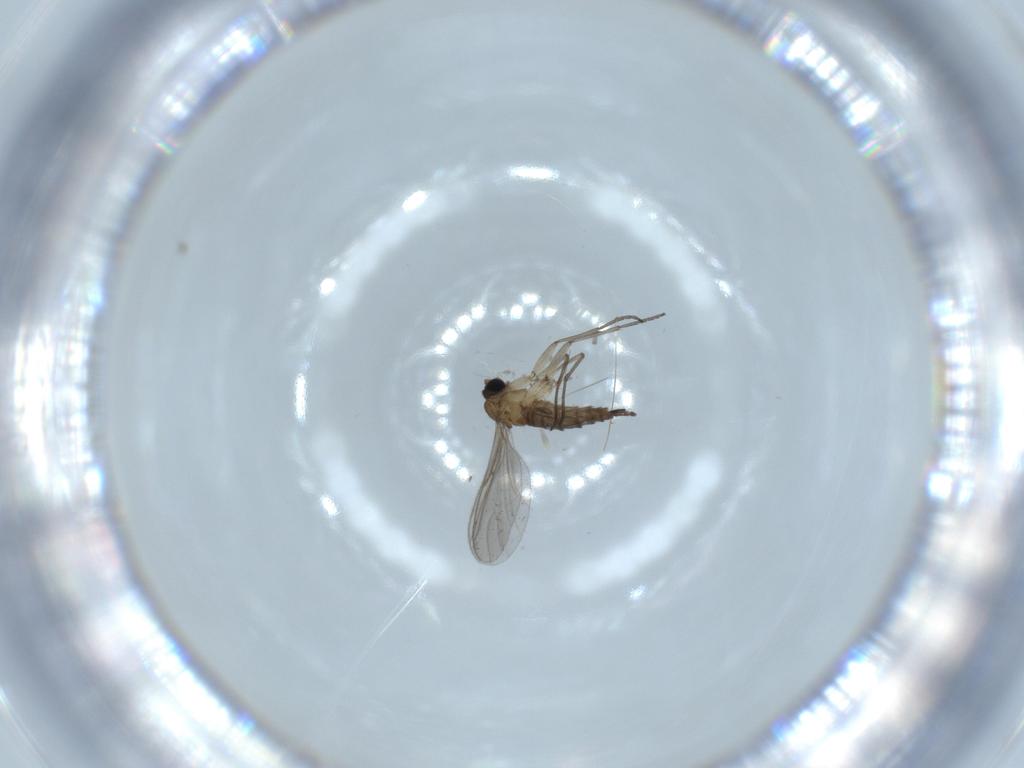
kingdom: Animalia
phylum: Arthropoda
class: Insecta
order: Diptera
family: Sciaridae
